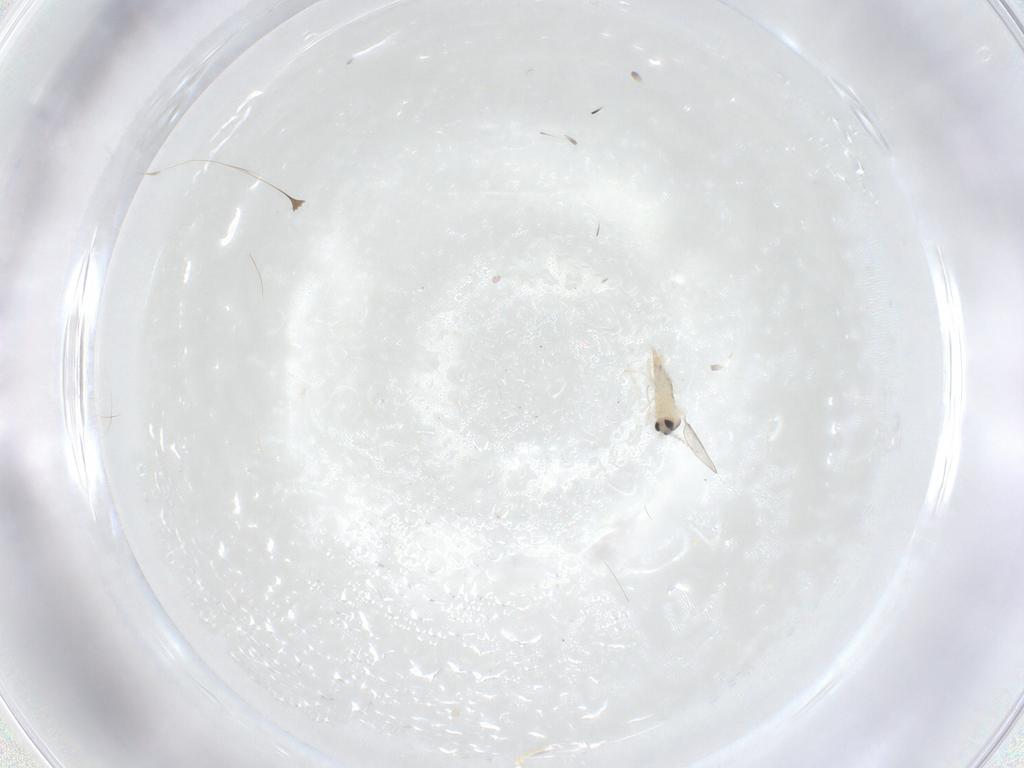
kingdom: Animalia
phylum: Arthropoda
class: Insecta
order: Diptera
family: Cecidomyiidae
